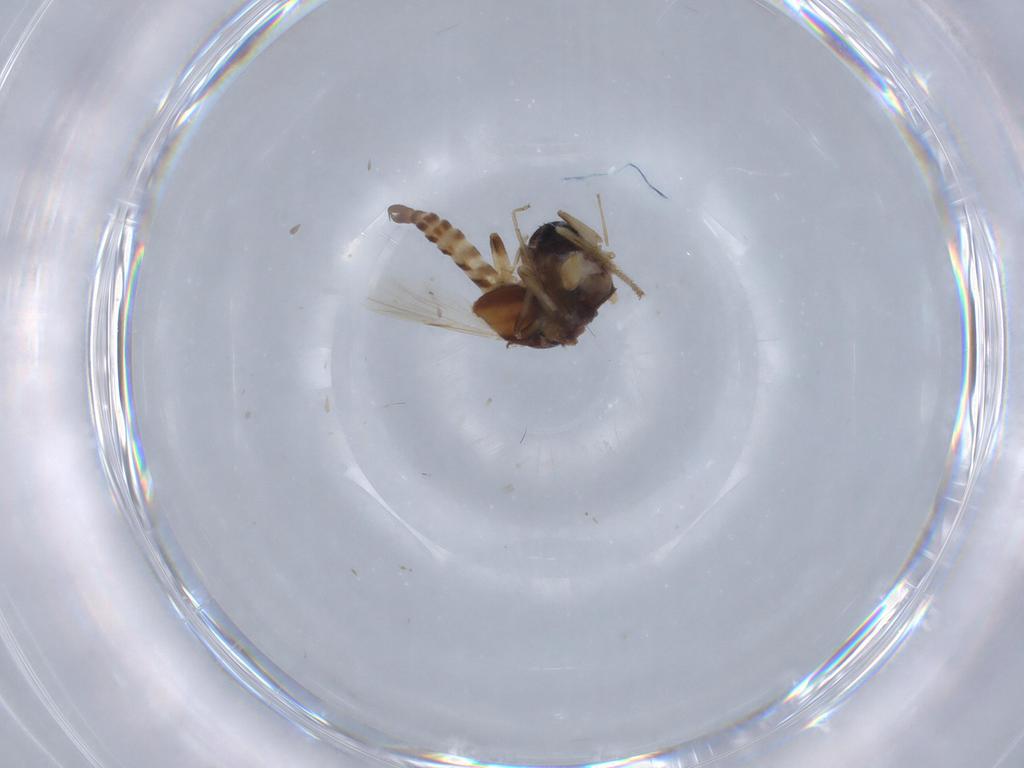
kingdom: Animalia
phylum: Arthropoda
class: Insecta
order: Diptera
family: Ceratopogonidae
